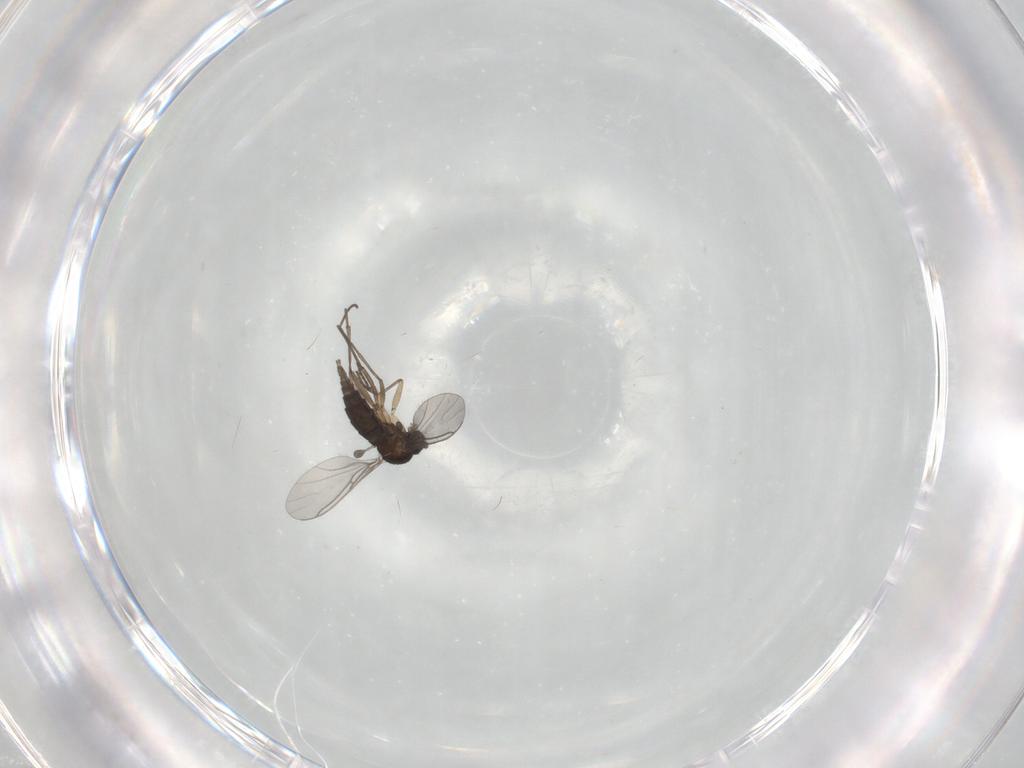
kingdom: Animalia
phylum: Arthropoda
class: Insecta
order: Diptera
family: Sciaridae
